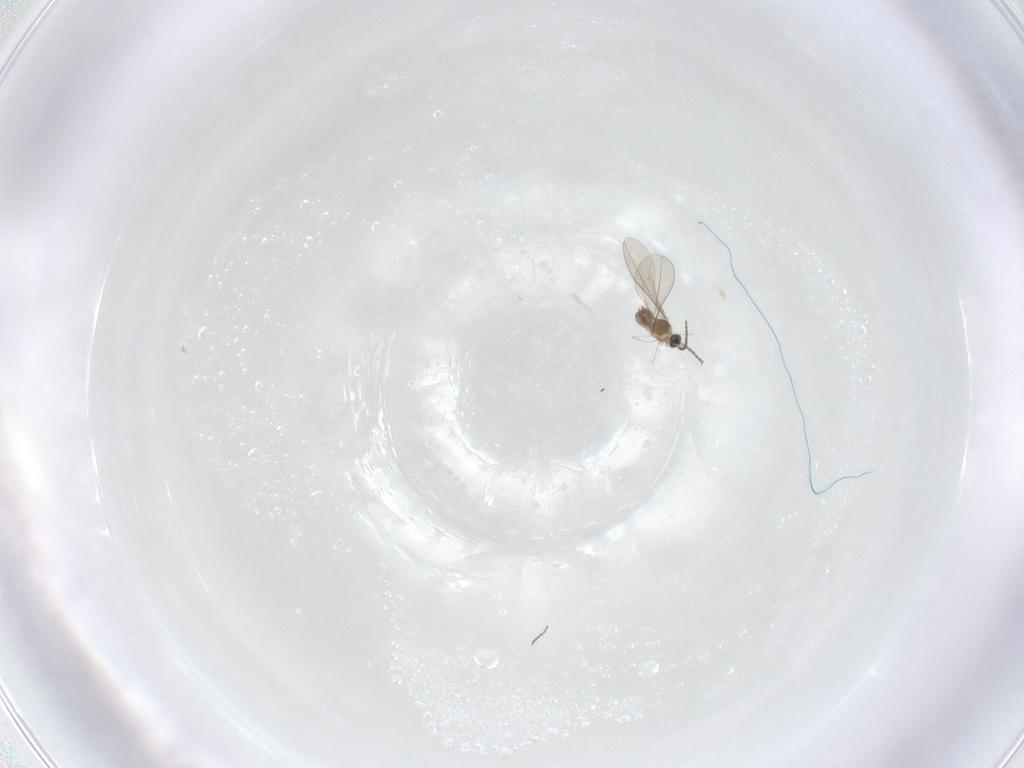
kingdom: Animalia
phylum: Arthropoda
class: Insecta
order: Diptera
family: Cecidomyiidae
